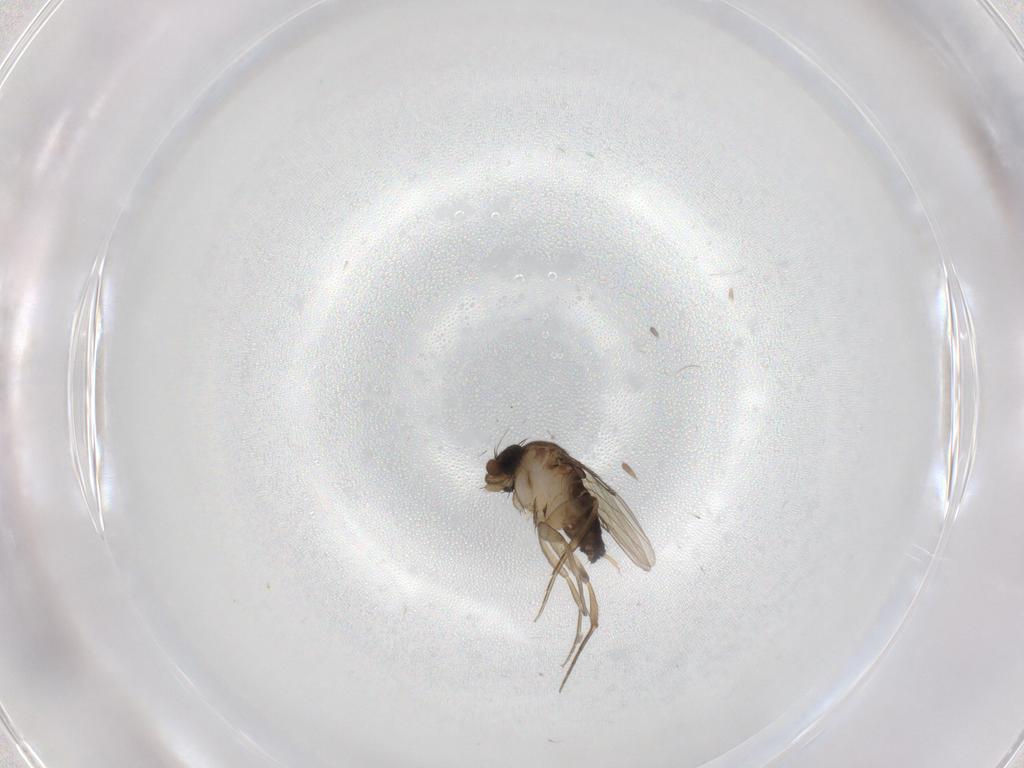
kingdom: Animalia
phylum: Arthropoda
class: Insecta
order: Diptera
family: Phoridae
